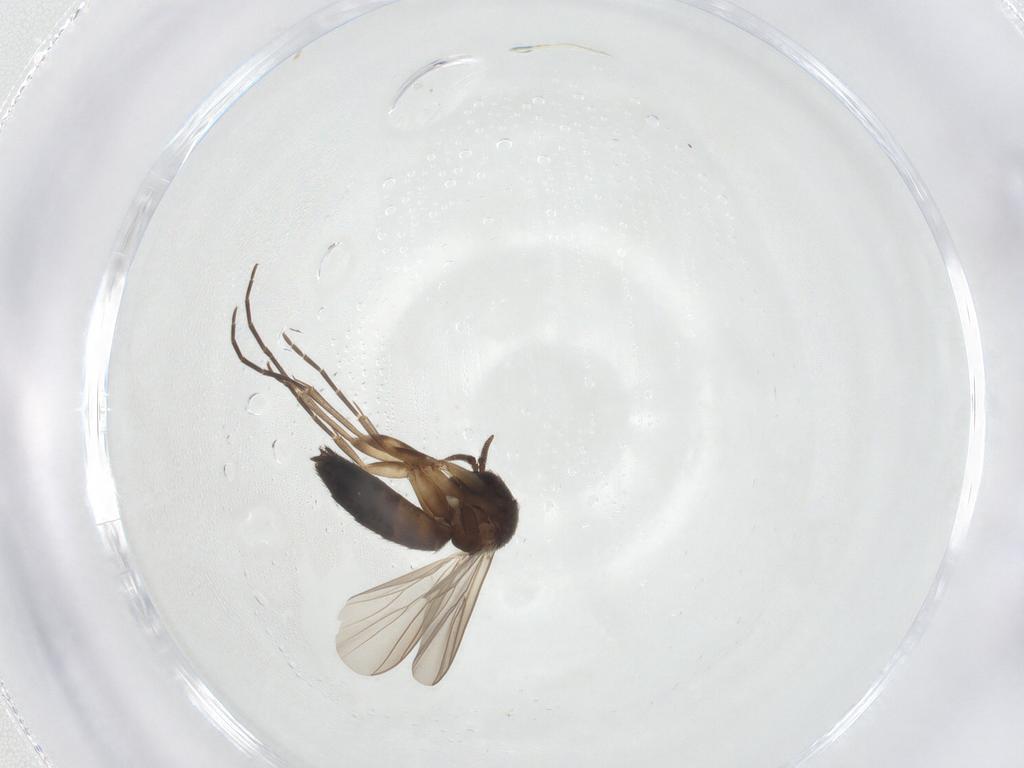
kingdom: Animalia
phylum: Arthropoda
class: Insecta
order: Diptera
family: Mycetophilidae
